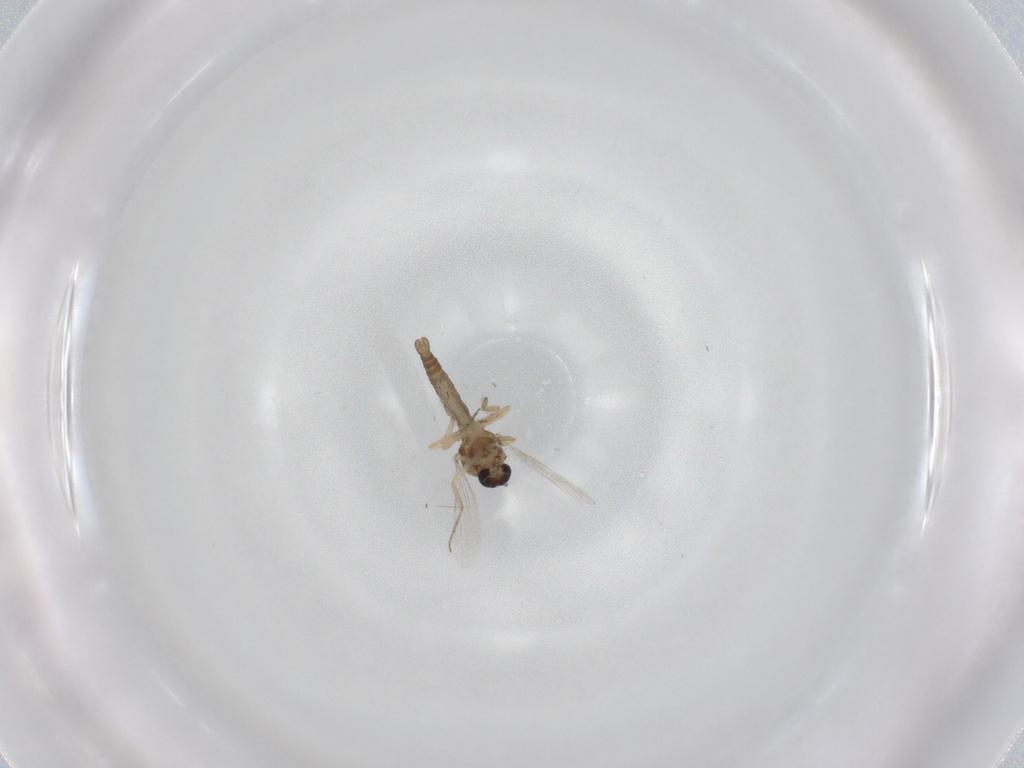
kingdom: Animalia
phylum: Arthropoda
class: Insecta
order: Diptera
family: Ceratopogonidae
